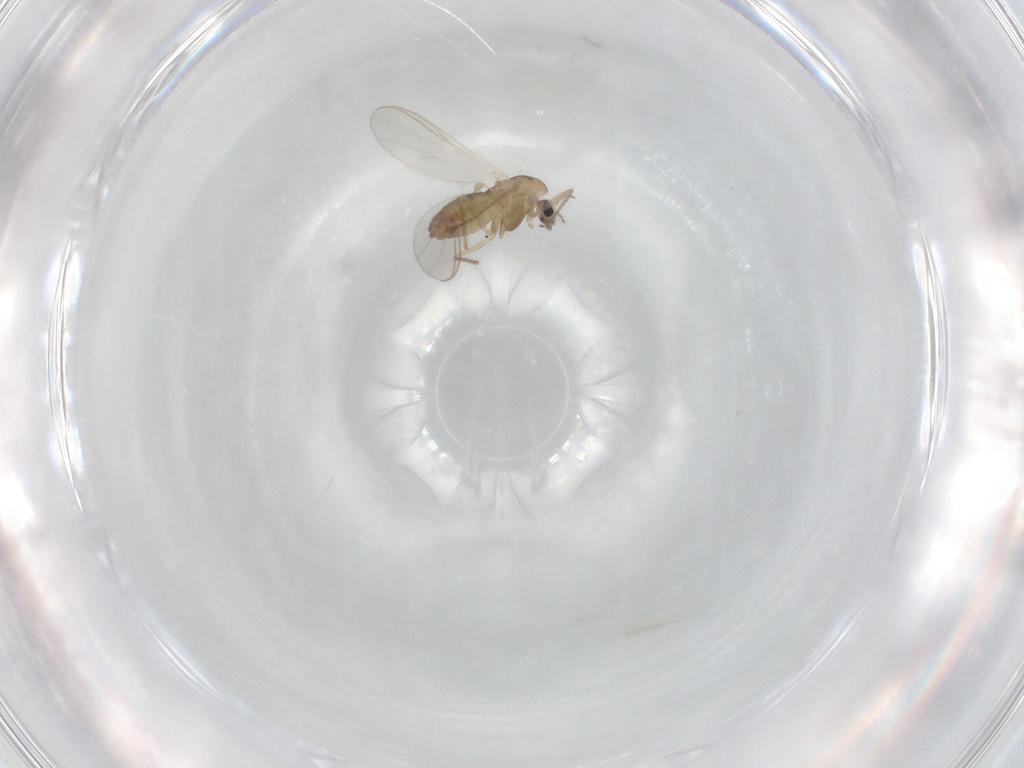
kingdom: Animalia
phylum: Arthropoda
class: Insecta
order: Diptera
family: Chironomidae
